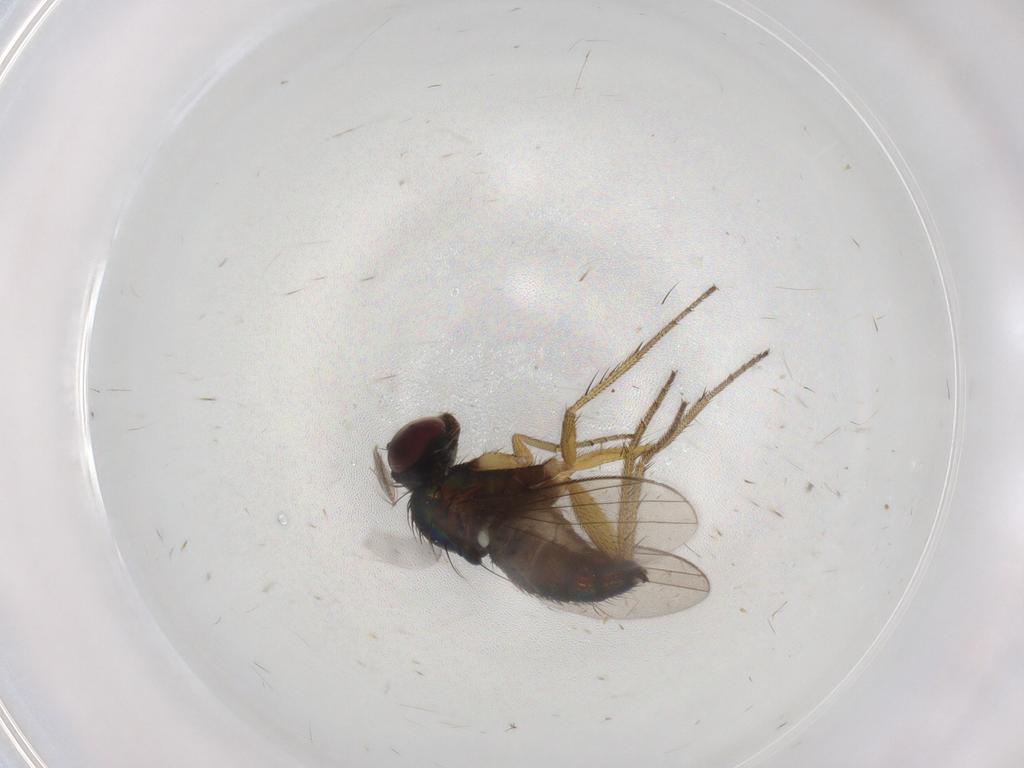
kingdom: Animalia
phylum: Arthropoda
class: Insecta
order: Diptera
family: Dolichopodidae
